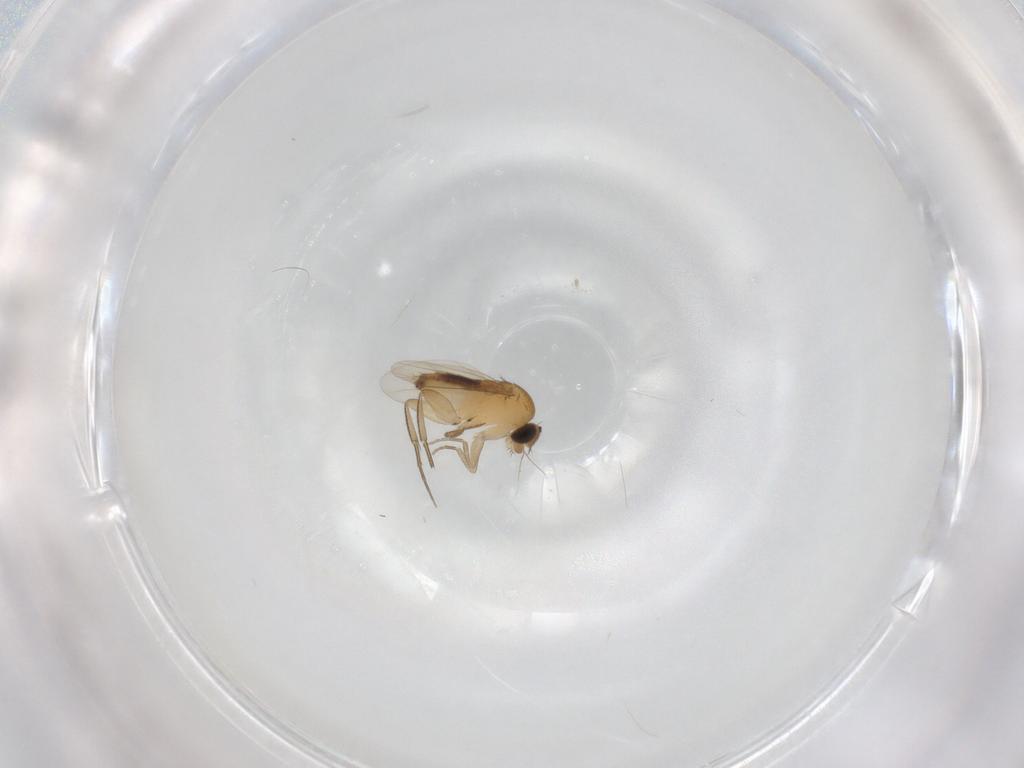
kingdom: Animalia
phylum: Arthropoda
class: Insecta
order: Diptera
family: Phoridae
